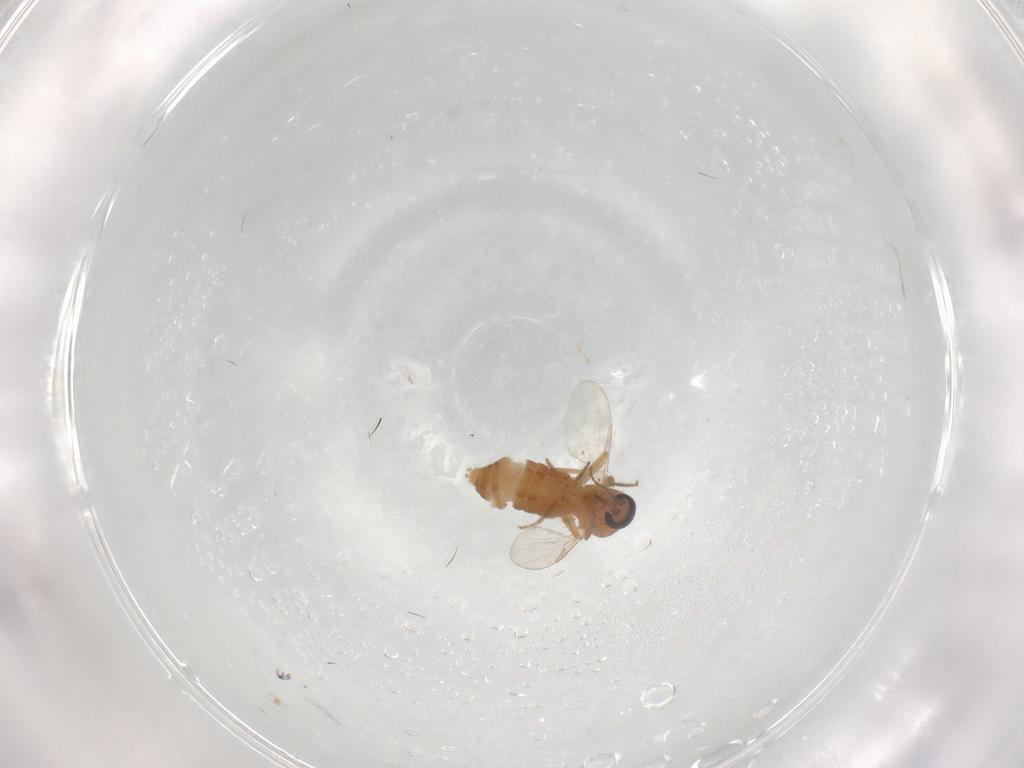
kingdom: Animalia
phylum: Arthropoda
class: Insecta
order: Diptera
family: Ceratopogonidae
